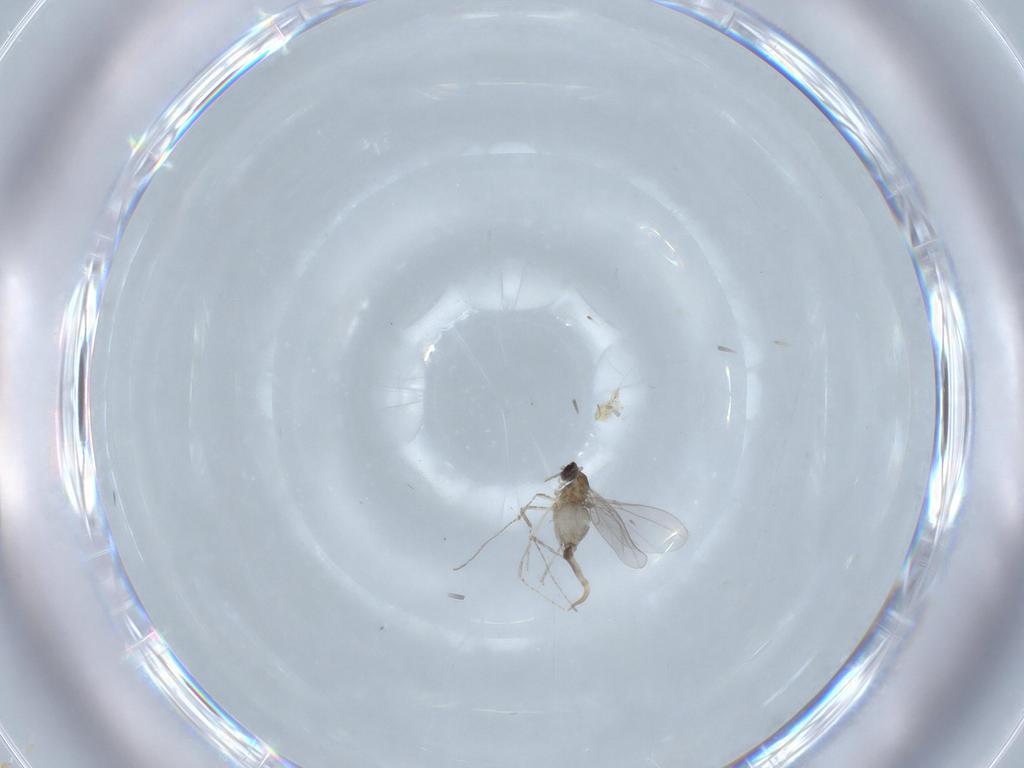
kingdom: Animalia
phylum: Arthropoda
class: Insecta
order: Diptera
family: Cecidomyiidae
